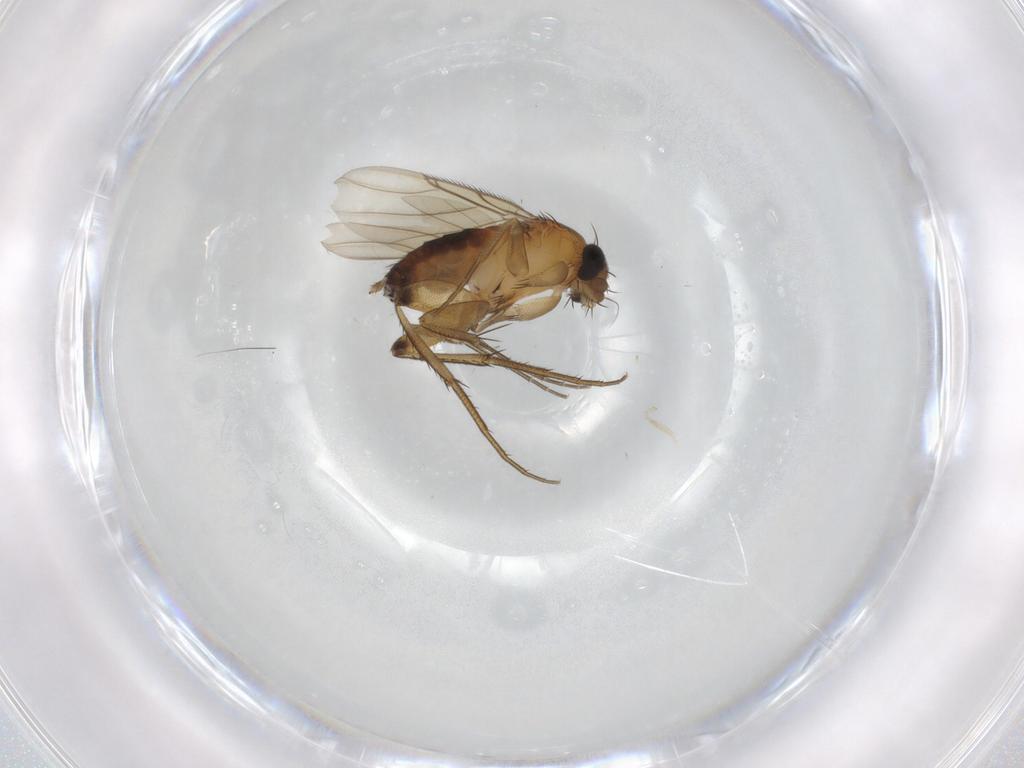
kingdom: Animalia
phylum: Arthropoda
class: Insecta
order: Diptera
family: Phoridae
